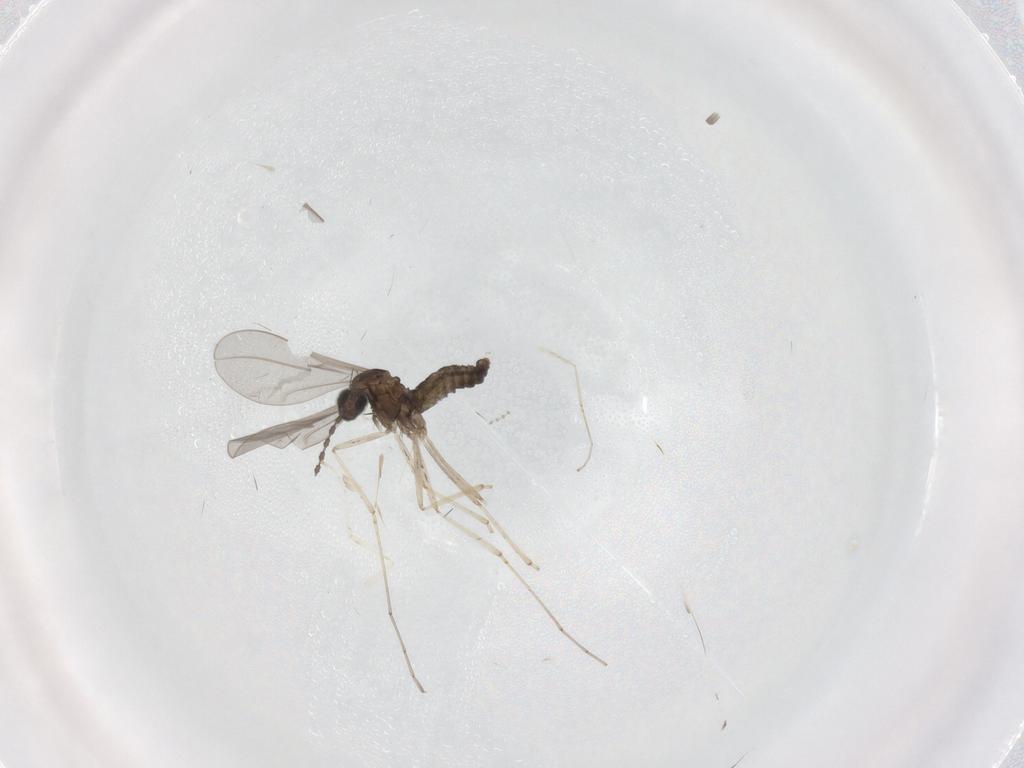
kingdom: Animalia
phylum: Arthropoda
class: Insecta
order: Diptera
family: Cecidomyiidae
